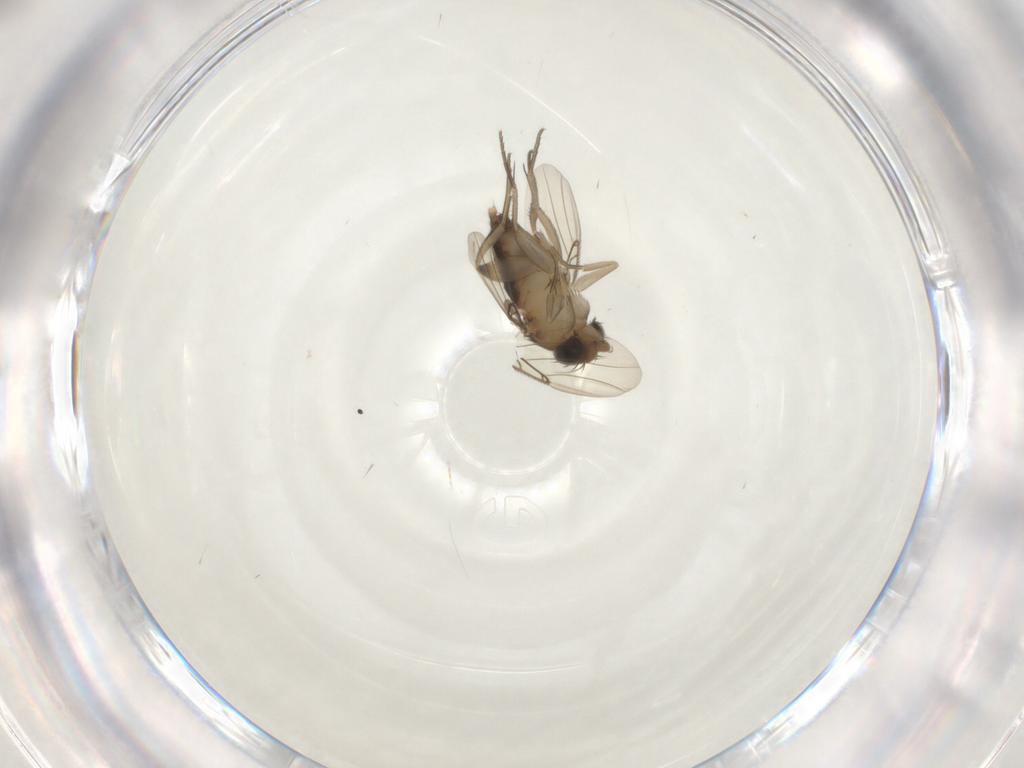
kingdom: Animalia
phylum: Arthropoda
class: Insecta
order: Diptera
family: Phoridae
